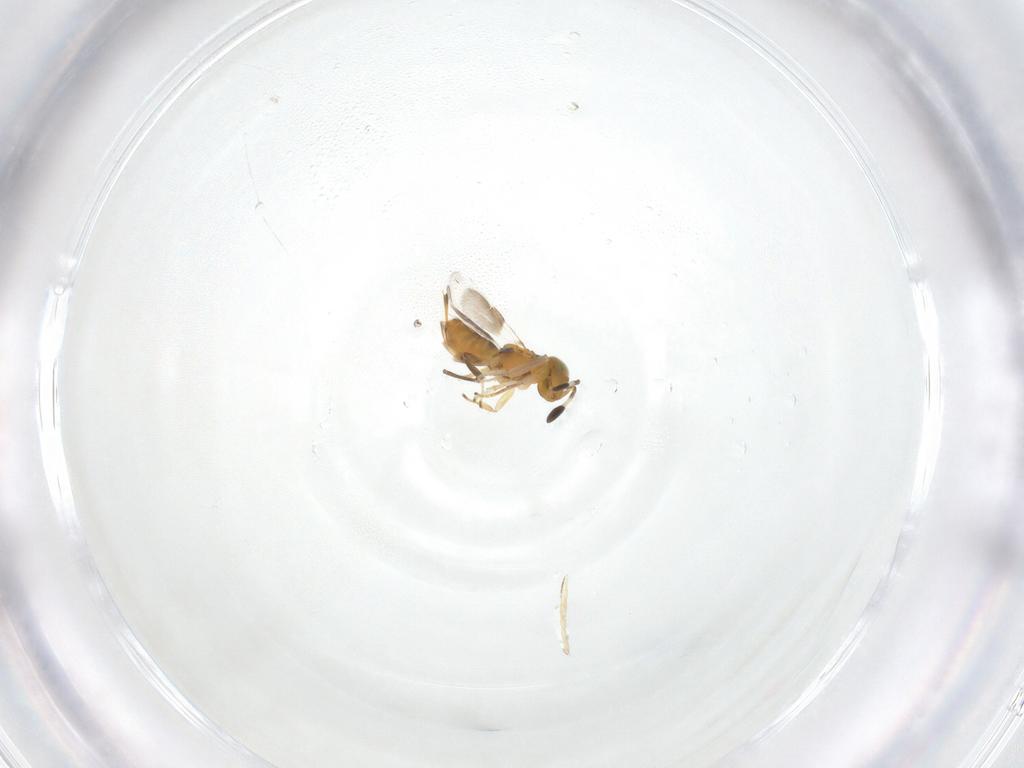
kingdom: Animalia
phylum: Arthropoda
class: Insecta
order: Hymenoptera
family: Encyrtidae
